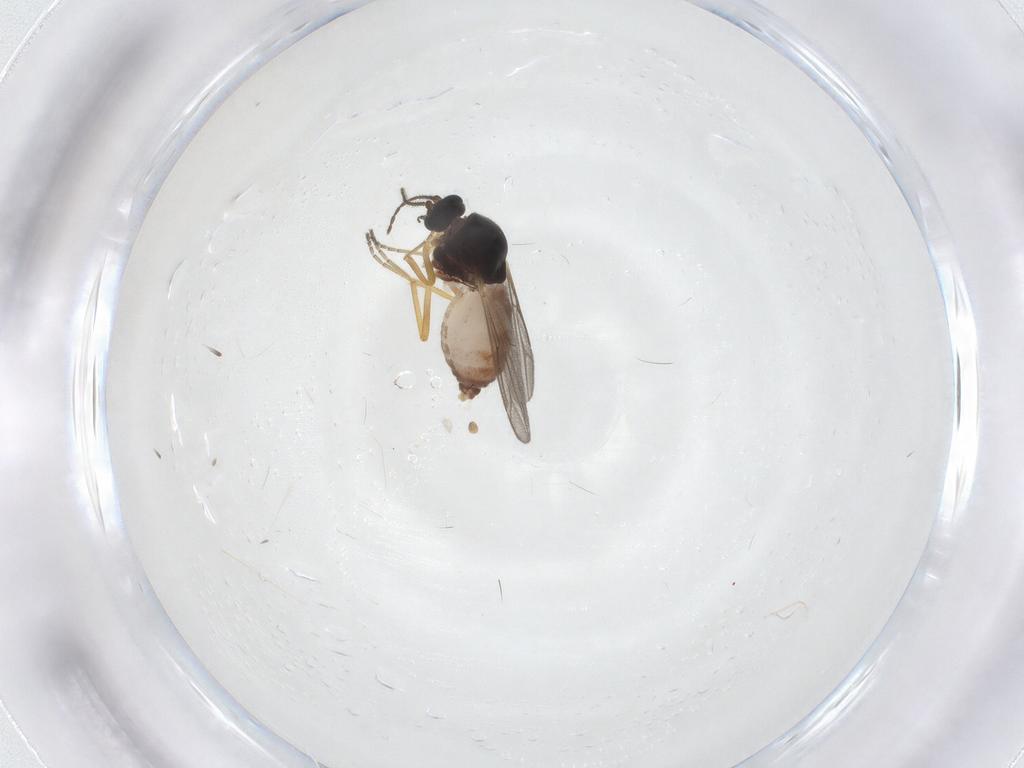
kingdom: Animalia
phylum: Arthropoda
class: Insecta
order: Diptera
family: Ceratopogonidae
